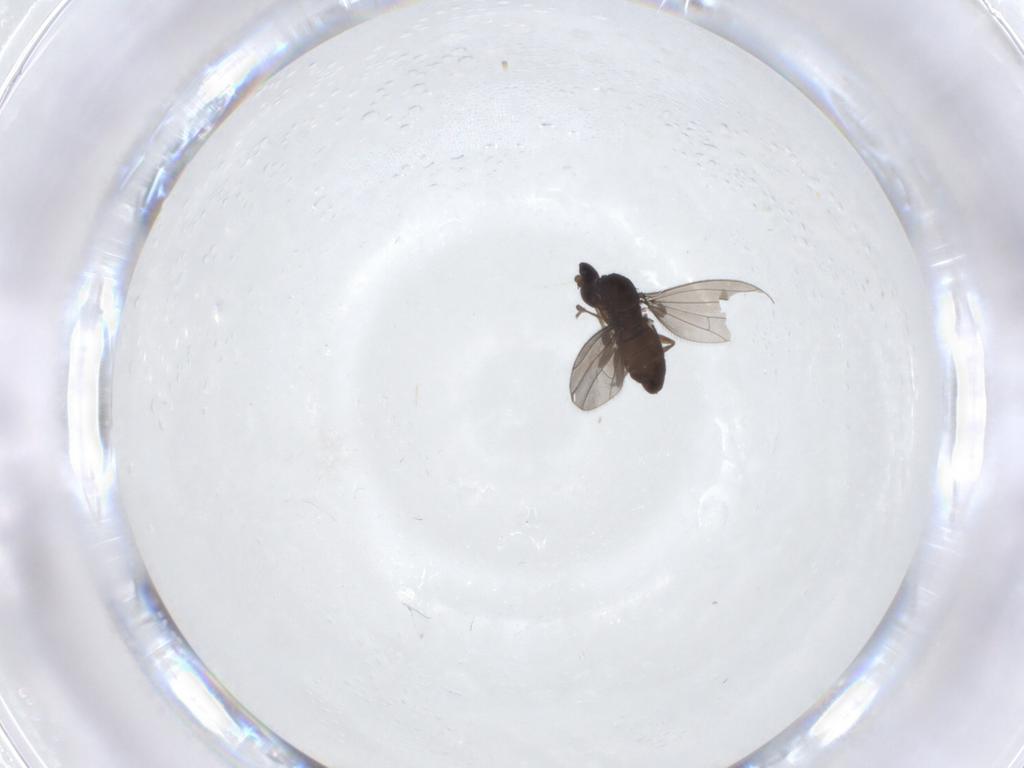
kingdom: Animalia
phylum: Arthropoda
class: Insecta
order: Diptera
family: Dolichopodidae
